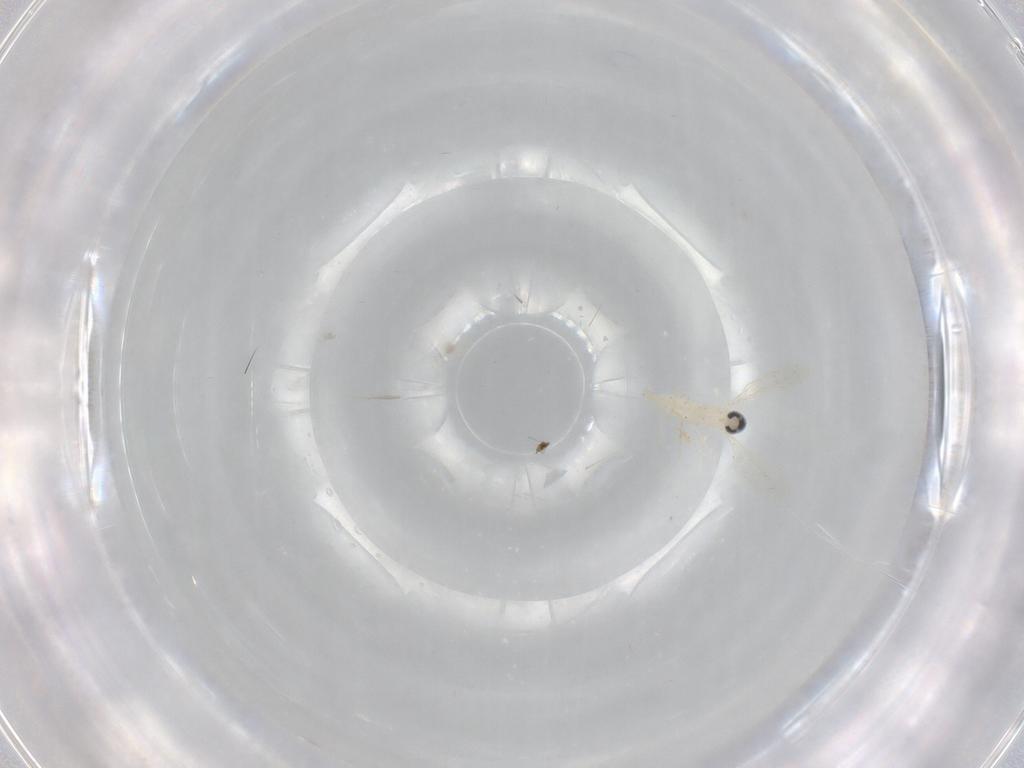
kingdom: Animalia
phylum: Arthropoda
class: Insecta
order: Diptera
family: Cecidomyiidae
